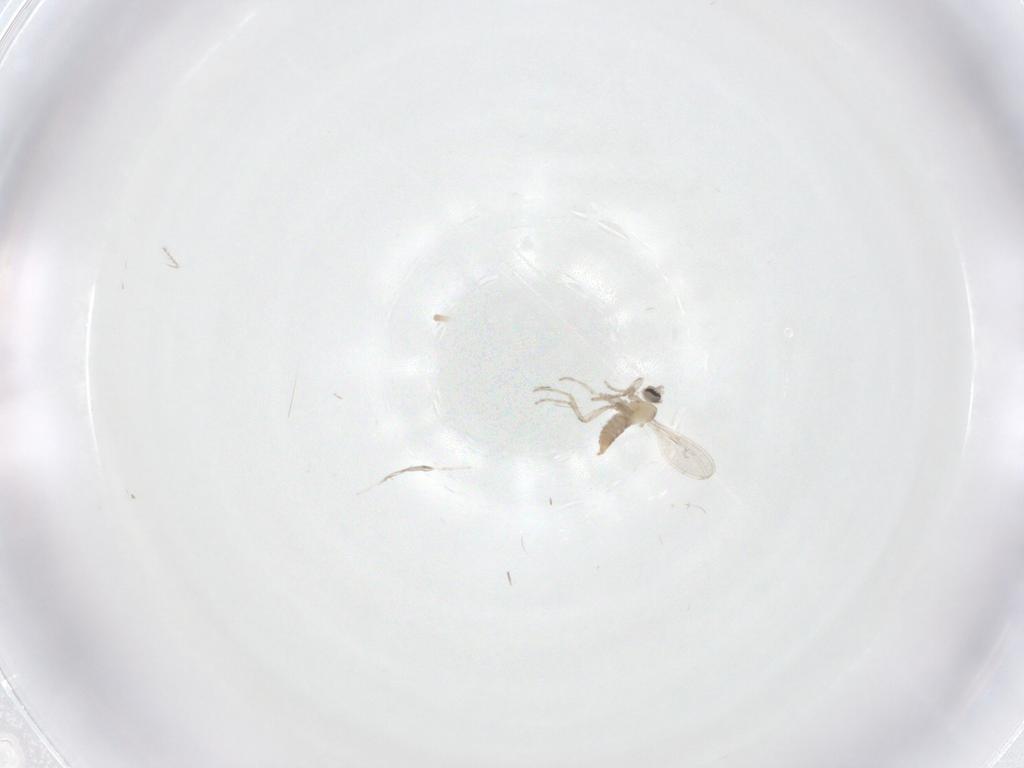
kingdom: Animalia
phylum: Arthropoda
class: Insecta
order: Diptera
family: Cecidomyiidae
